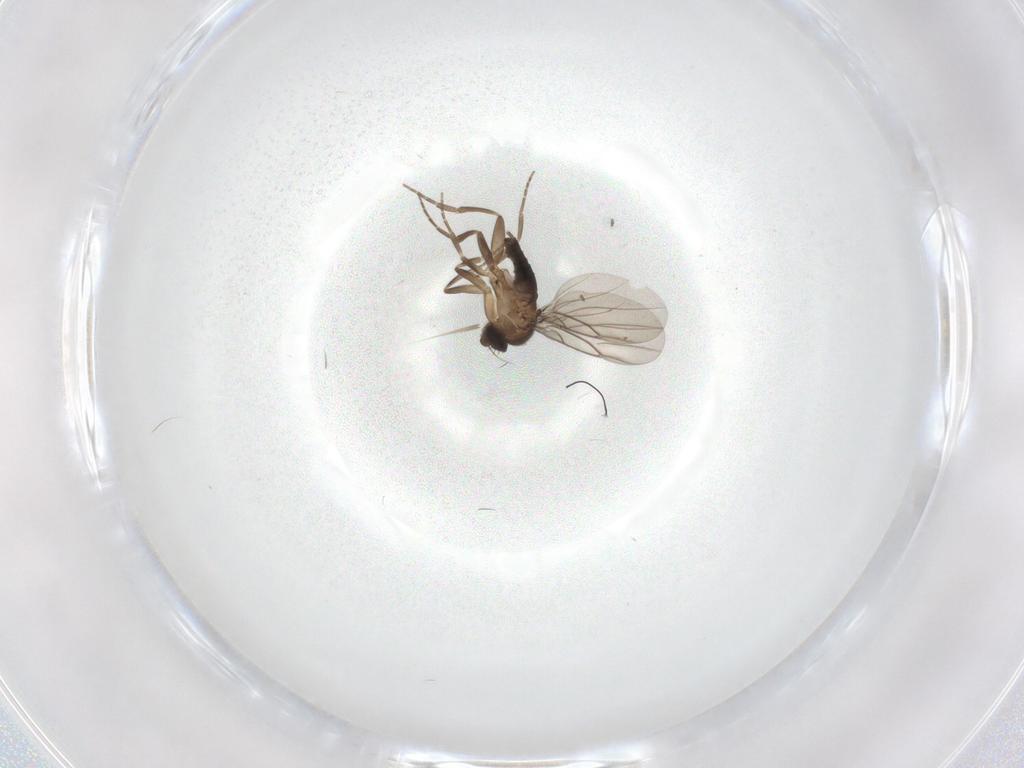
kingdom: Animalia
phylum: Arthropoda
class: Insecta
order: Diptera
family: Phoridae
